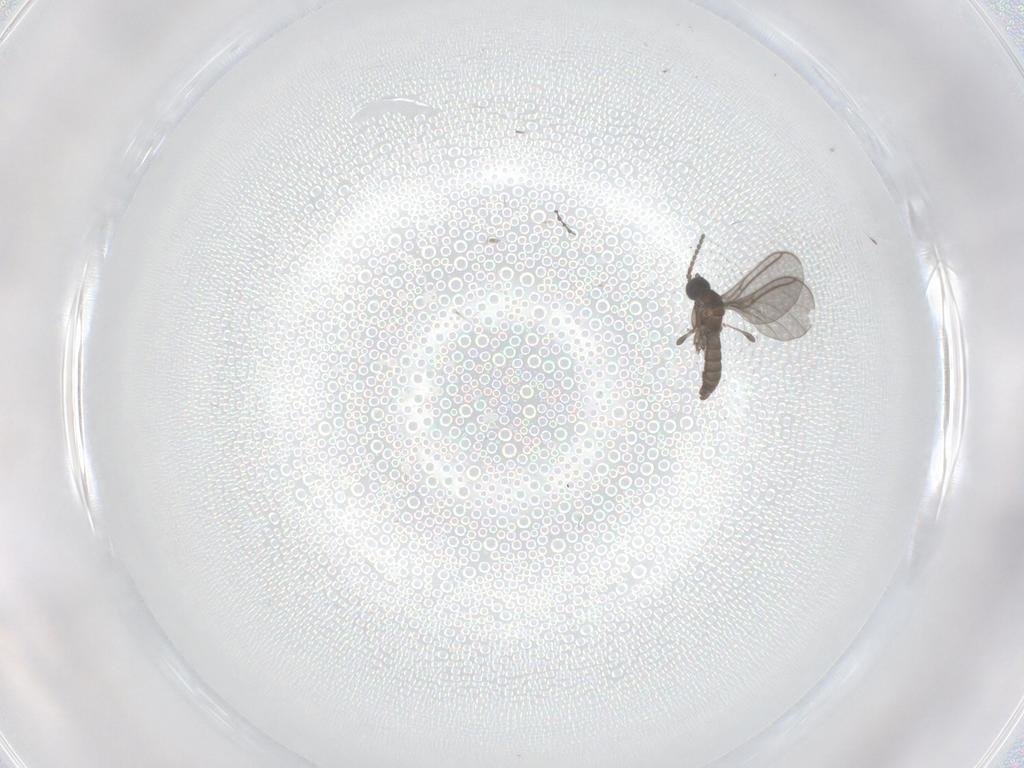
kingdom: Animalia
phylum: Arthropoda
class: Insecta
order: Diptera
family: Sciaridae
